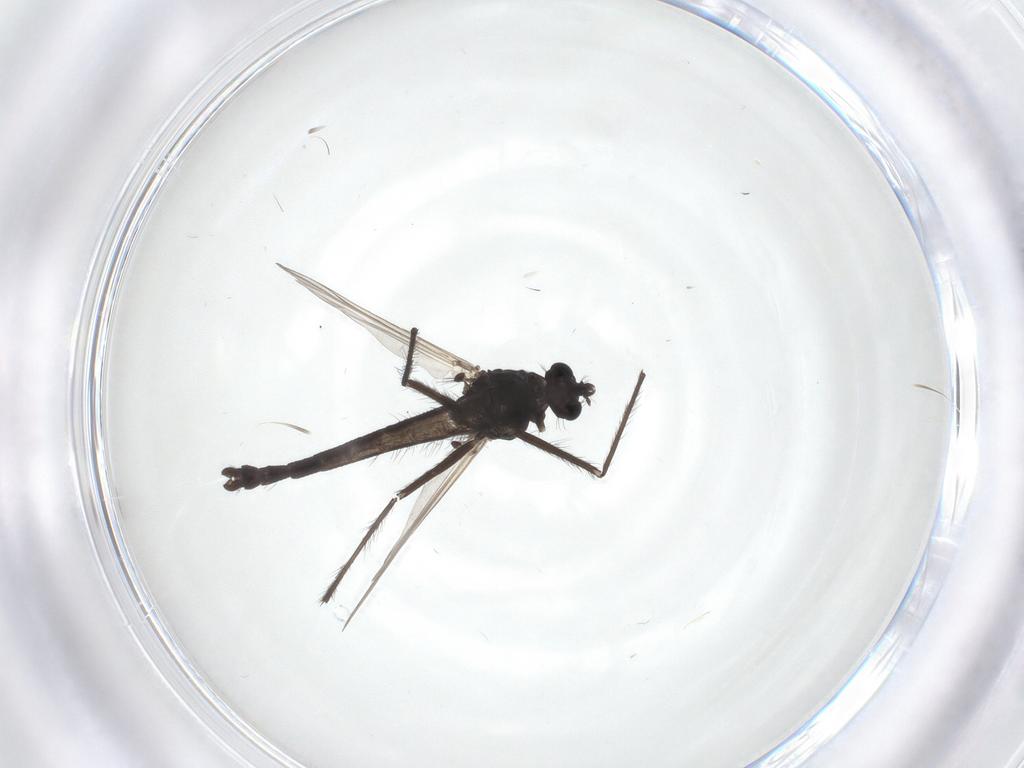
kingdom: Animalia
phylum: Arthropoda
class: Insecta
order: Diptera
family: Chironomidae
